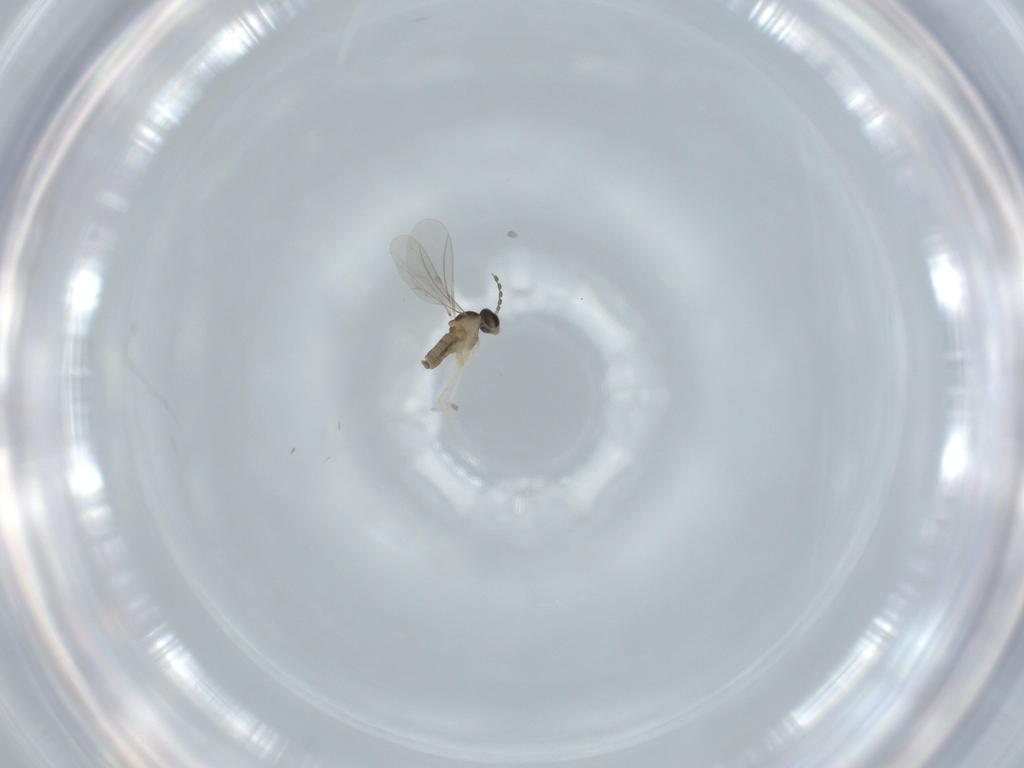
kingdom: Animalia
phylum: Arthropoda
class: Insecta
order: Diptera
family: Cecidomyiidae
